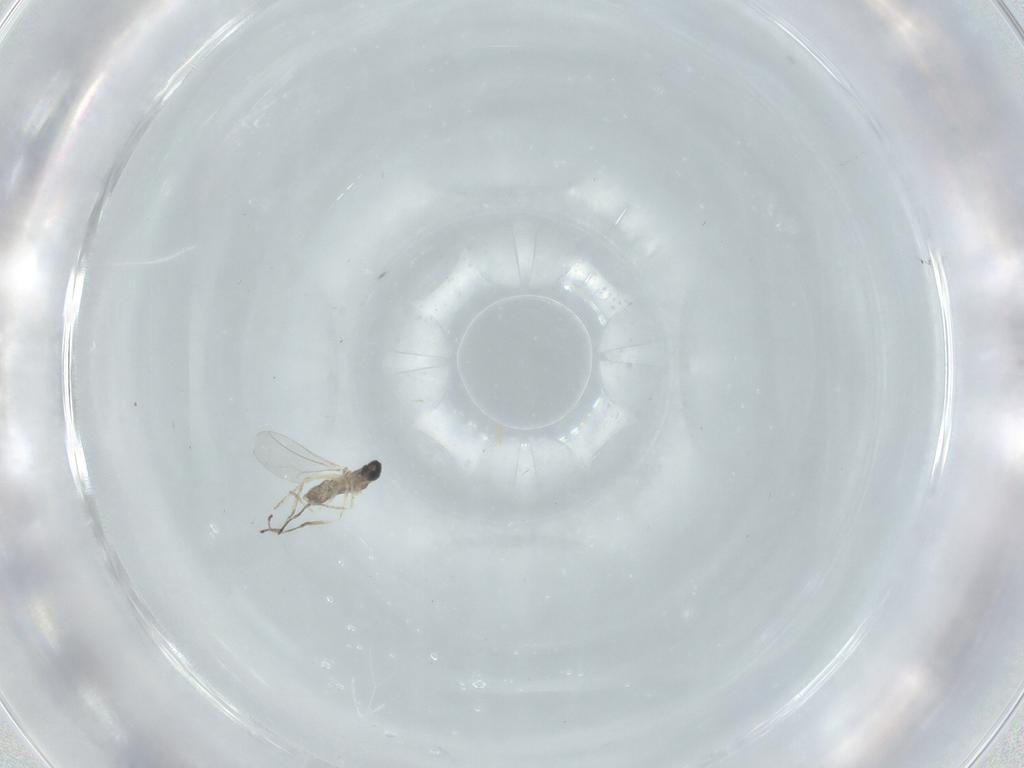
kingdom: Animalia
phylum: Arthropoda
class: Insecta
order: Diptera
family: Cecidomyiidae
